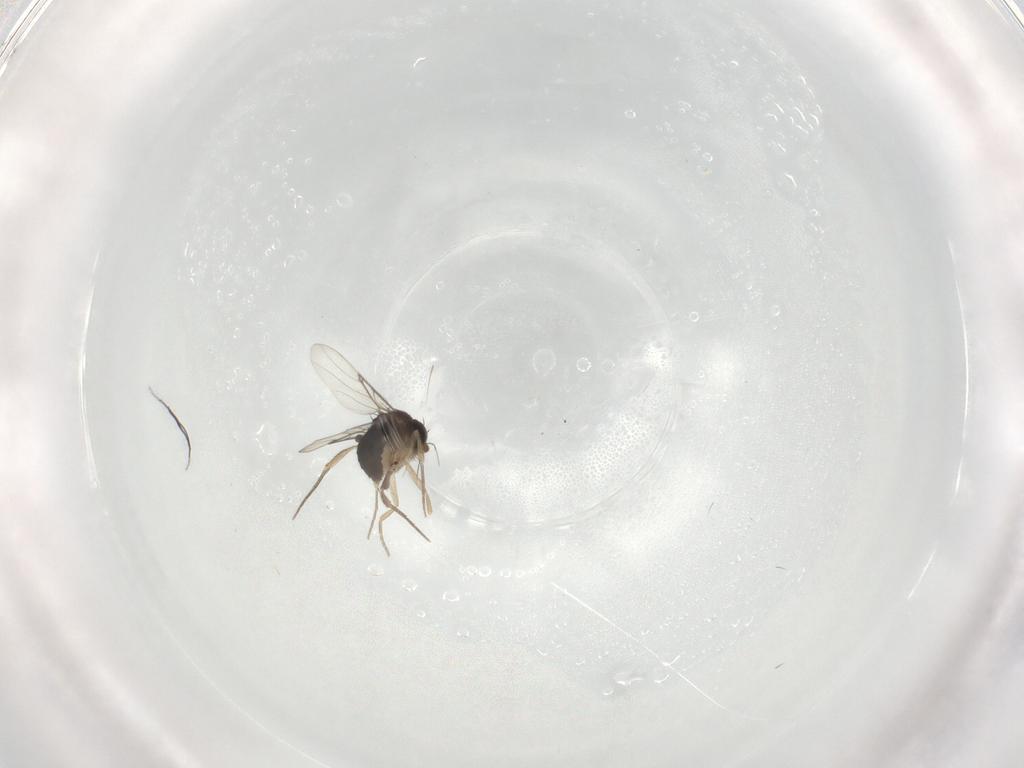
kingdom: Animalia
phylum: Arthropoda
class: Insecta
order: Diptera
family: Phoridae
